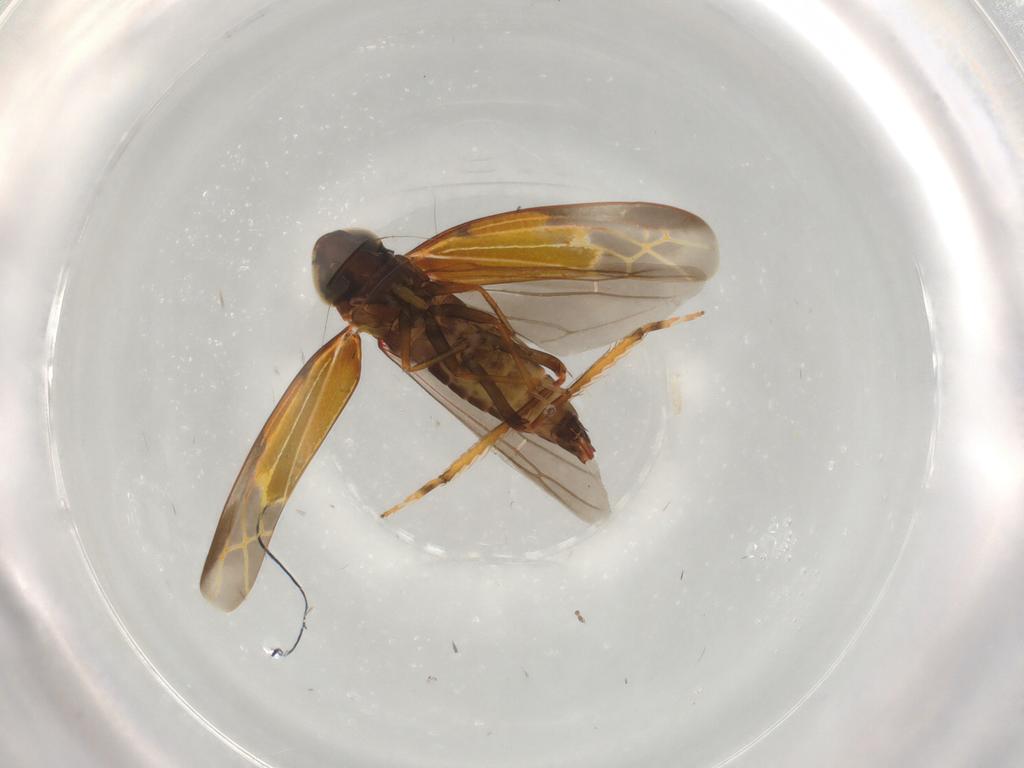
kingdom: Animalia
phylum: Arthropoda
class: Insecta
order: Hemiptera
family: Cicadellidae
